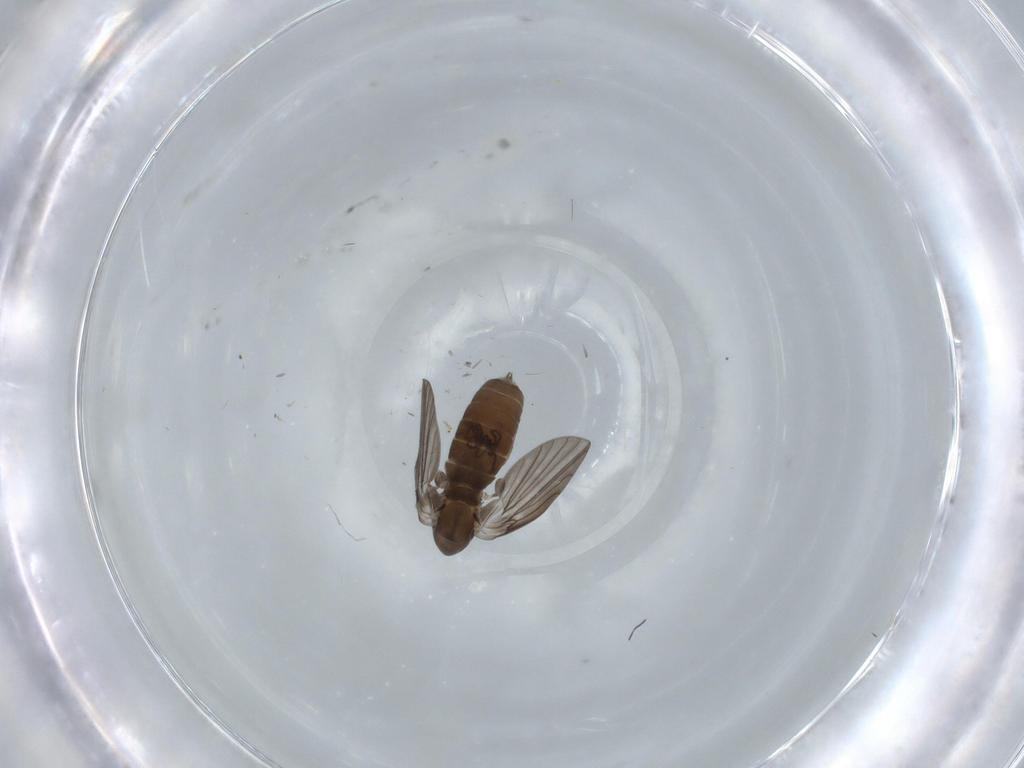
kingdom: Animalia
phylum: Arthropoda
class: Insecta
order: Diptera
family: Psychodidae
